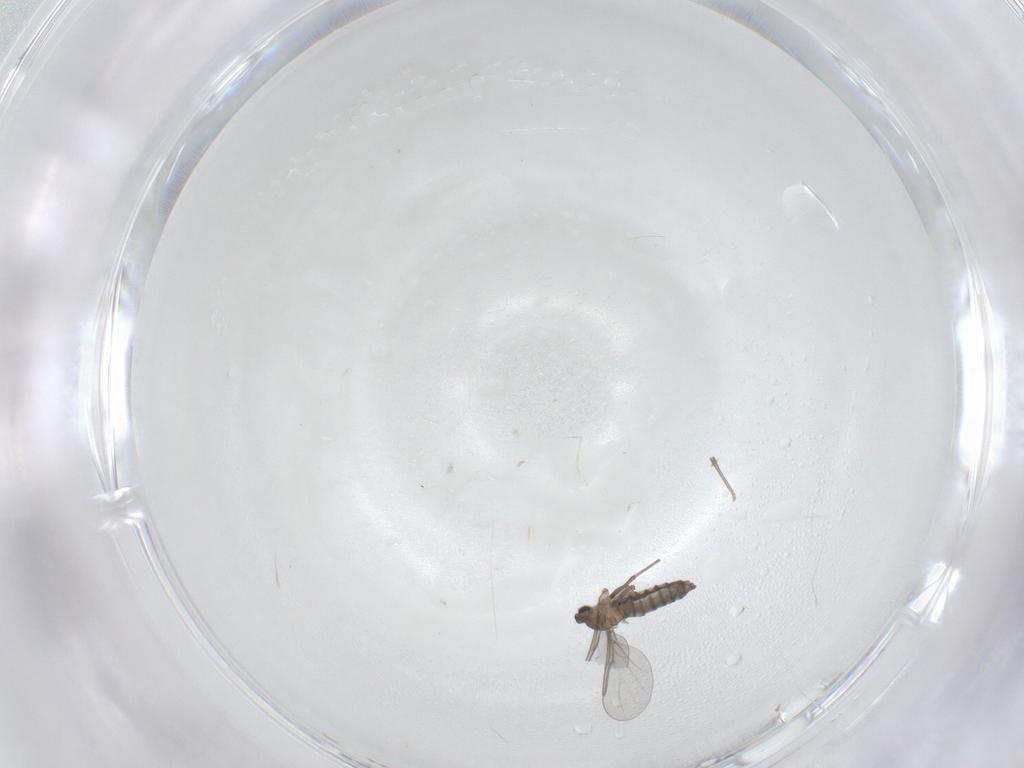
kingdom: Animalia
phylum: Arthropoda
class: Insecta
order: Diptera
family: Cecidomyiidae
